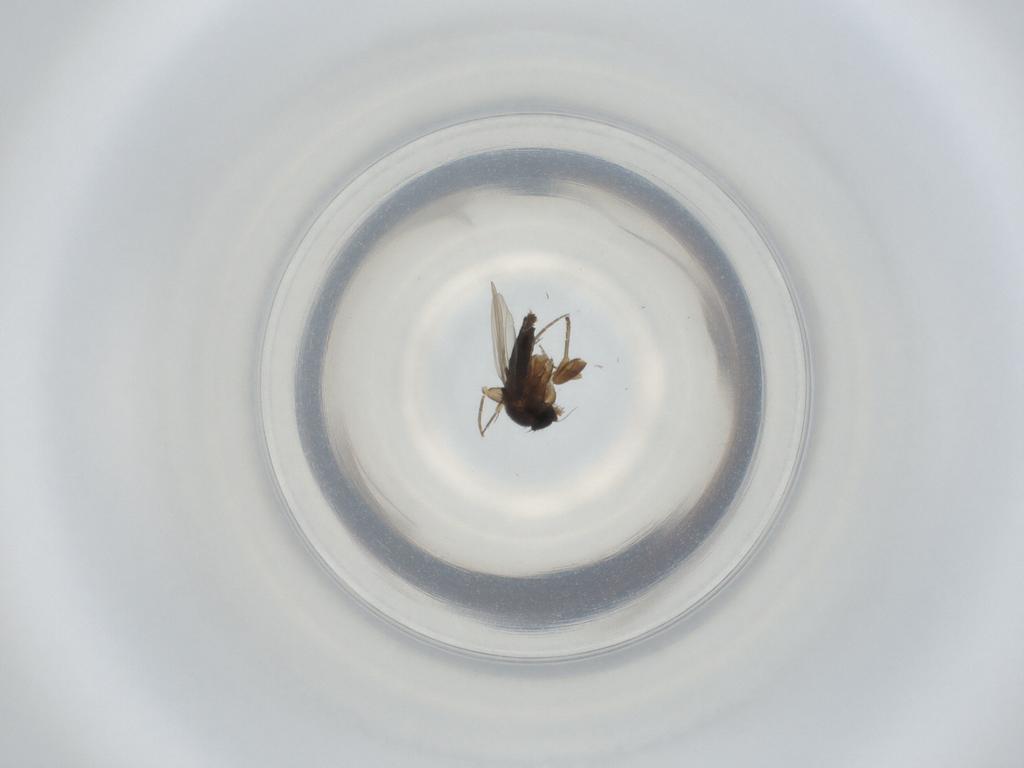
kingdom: Animalia
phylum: Arthropoda
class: Insecta
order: Diptera
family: Phoridae
